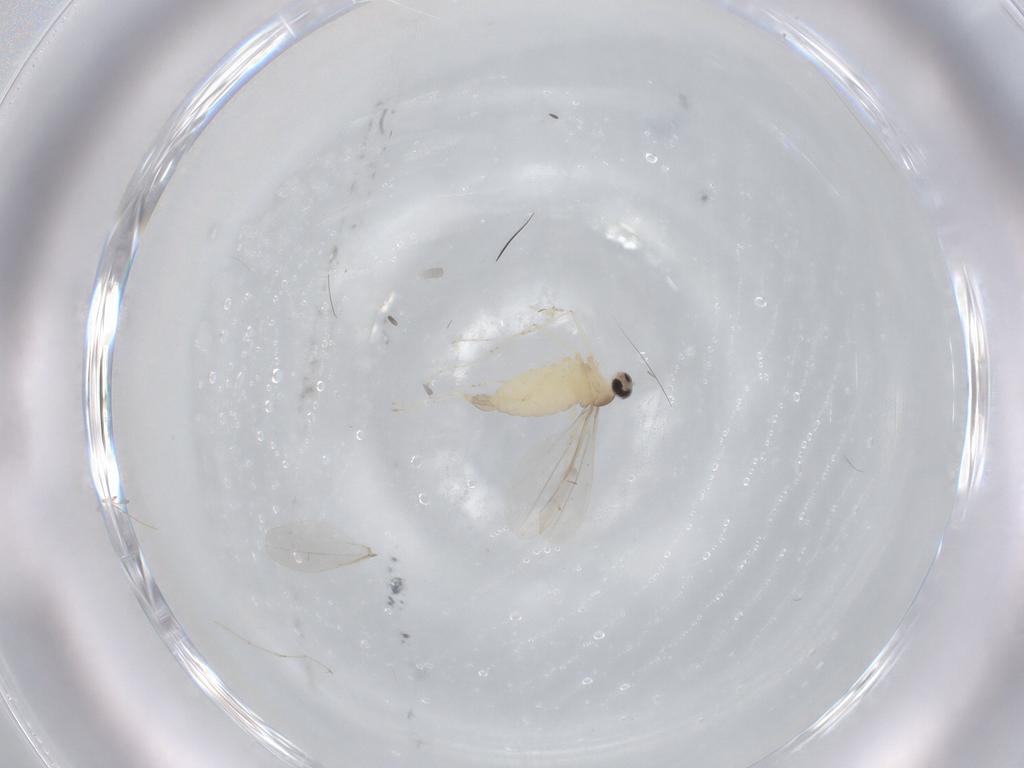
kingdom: Animalia
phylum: Arthropoda
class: Insecta
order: Diptera
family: Cecidomyiidae
